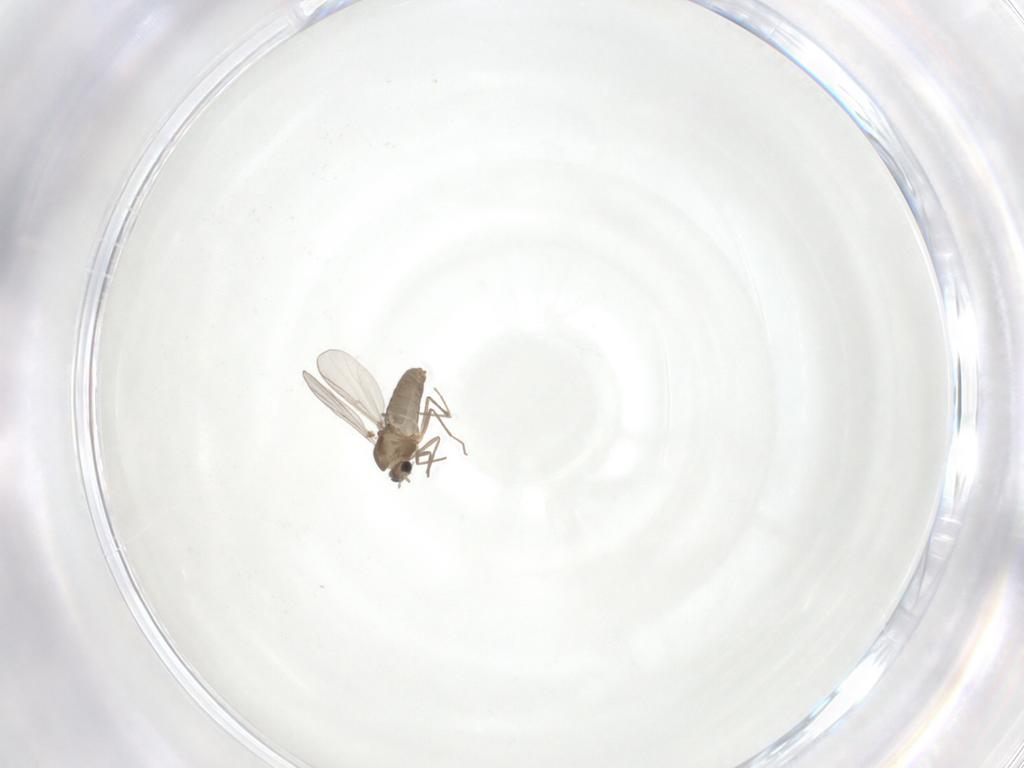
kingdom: Animalia
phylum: Arthropoda
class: Insecta
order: Diptera
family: Chironomidae
